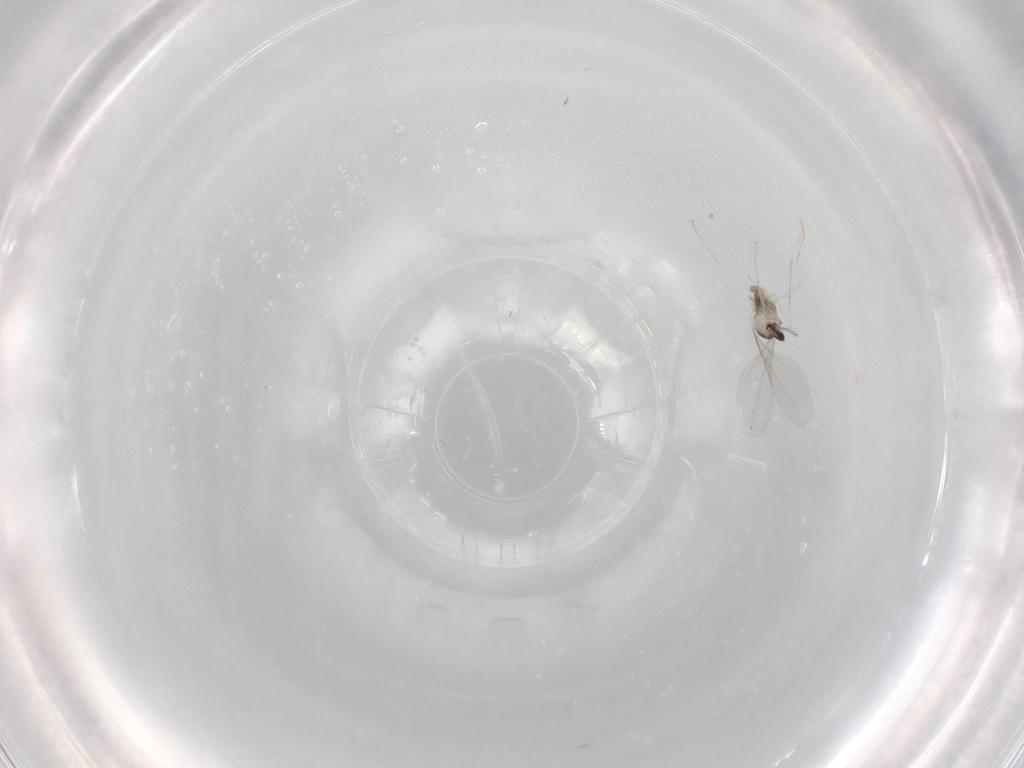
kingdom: Animalia
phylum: Arthropoda
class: Insecta
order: Diptera
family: Cecidomyiidae
